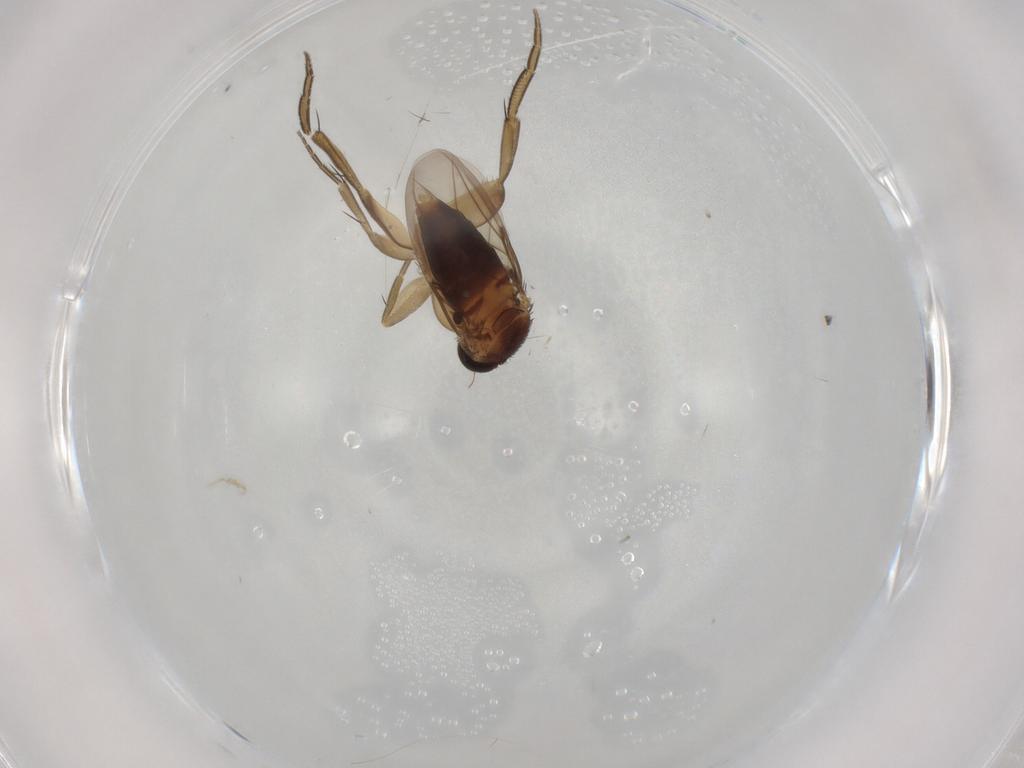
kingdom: Animalia
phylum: Arthropoda
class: Insecta
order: Diptera
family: Phoridae
